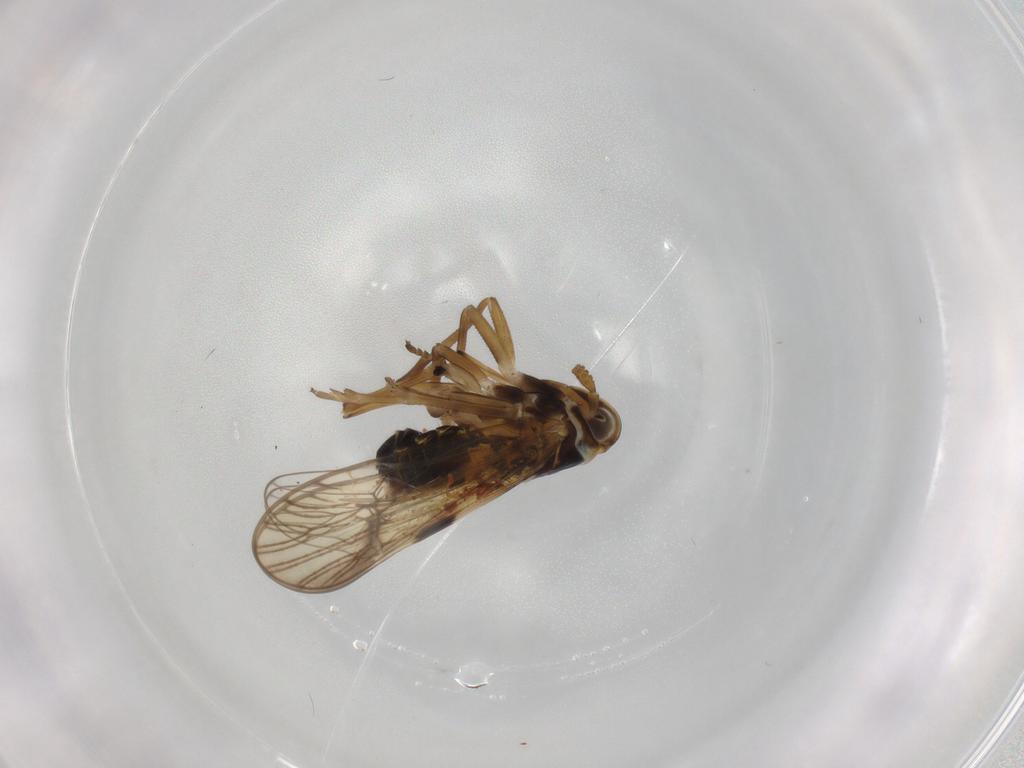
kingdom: Animalia
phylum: Arthropoda
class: Insecta
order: Hemiptera
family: Delphacidae
